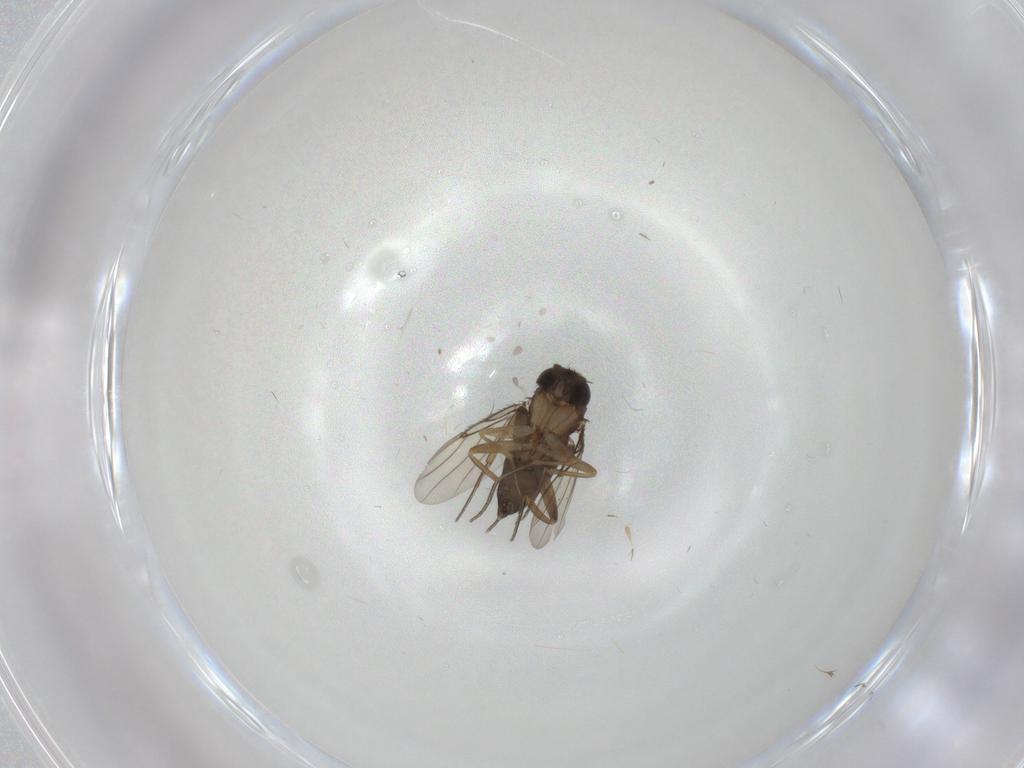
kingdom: Animalia
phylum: Arthropoda
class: Insecta
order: Diptera
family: Phoridae
